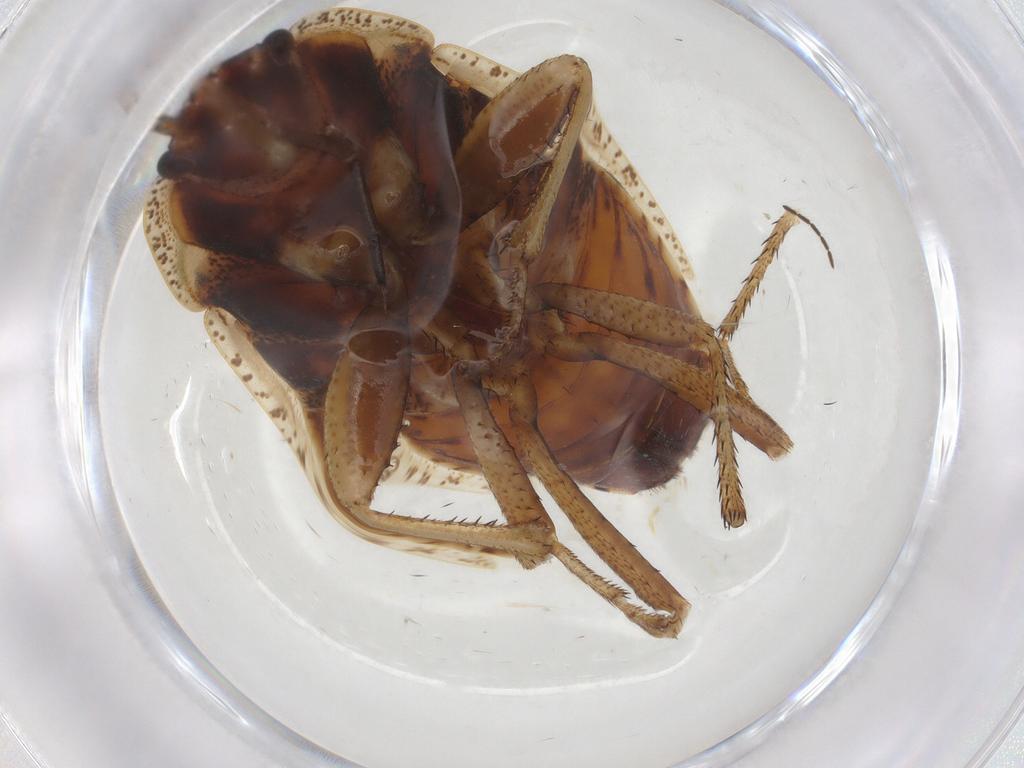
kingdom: Animalia
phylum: Arthropoda
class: Insecta
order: Hemiptera
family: Lygaeidae
